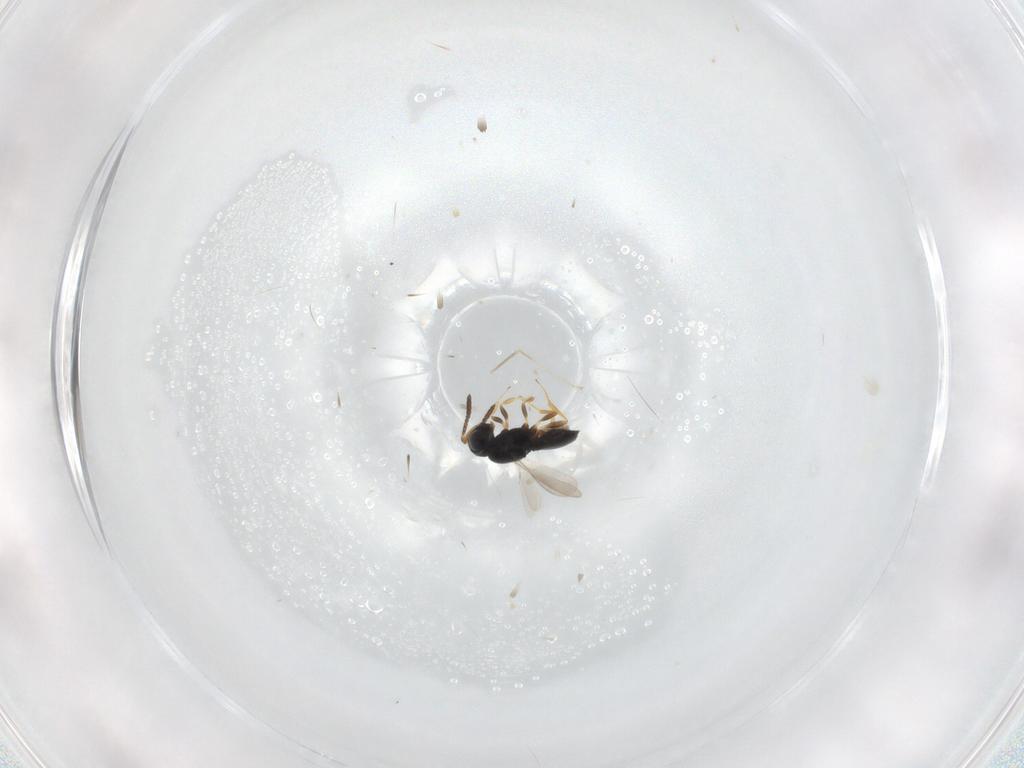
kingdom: Animalia
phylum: Arthropoda
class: Insecta
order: Hymenoptera
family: Scelionidae
